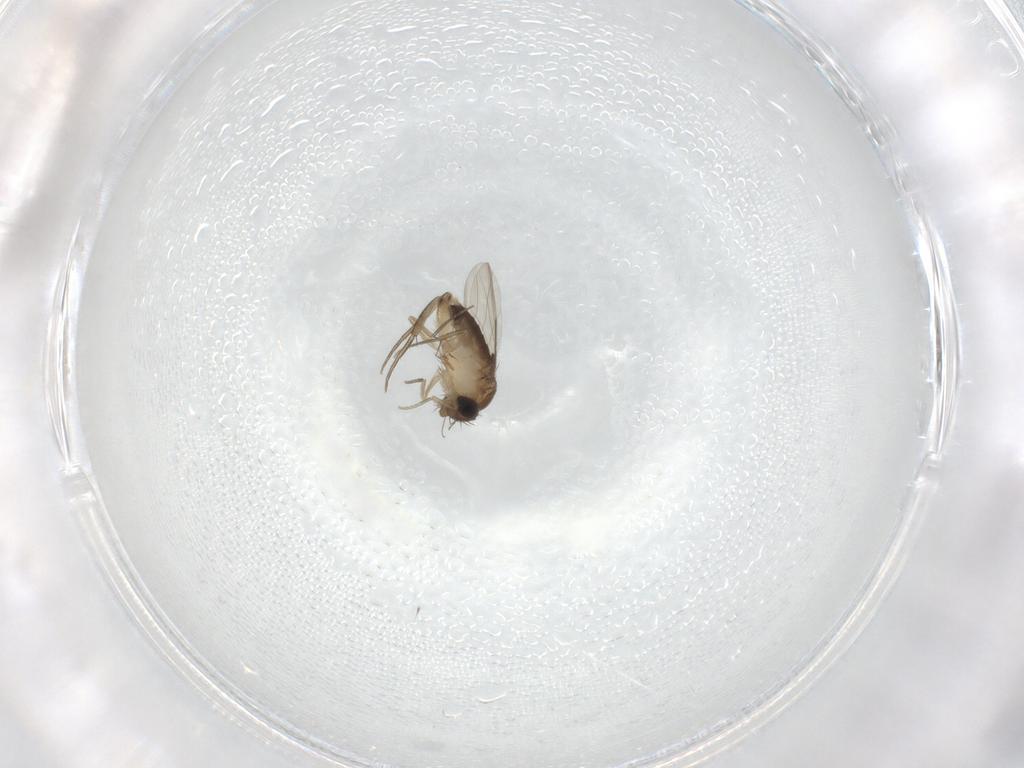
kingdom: Animalia
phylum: Arthropoda
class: Insecta
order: Diptera
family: Phoridae
